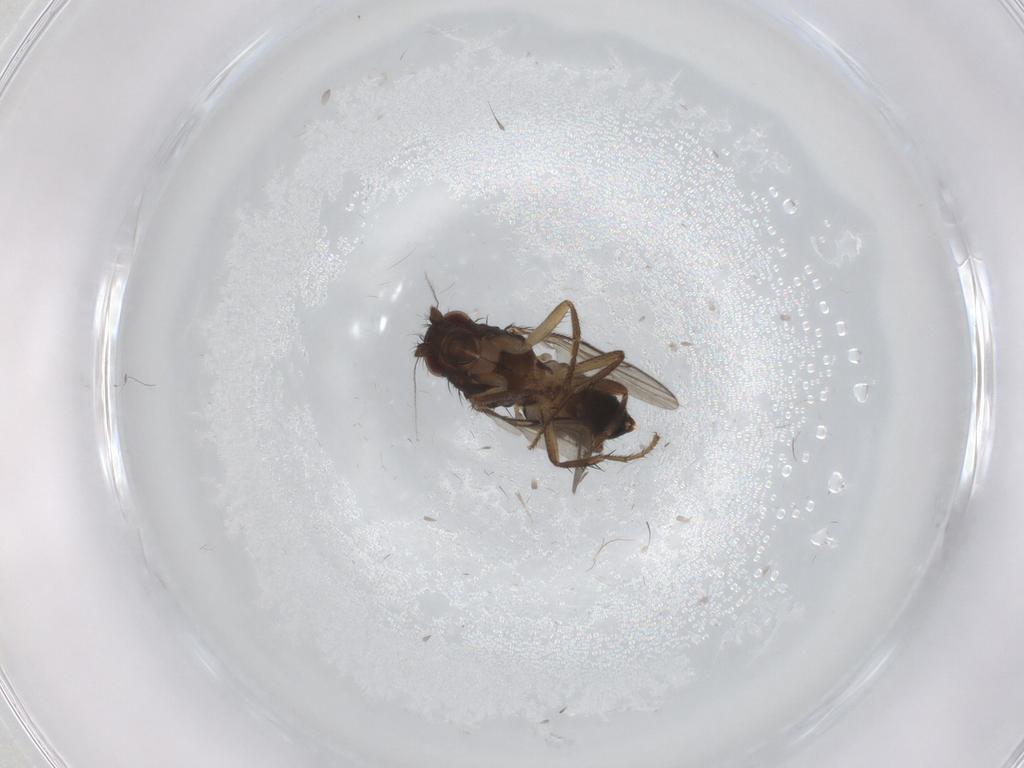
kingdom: Animalia
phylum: Arthropoda
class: Insecta
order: Diptera
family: Sphaeroceridae
